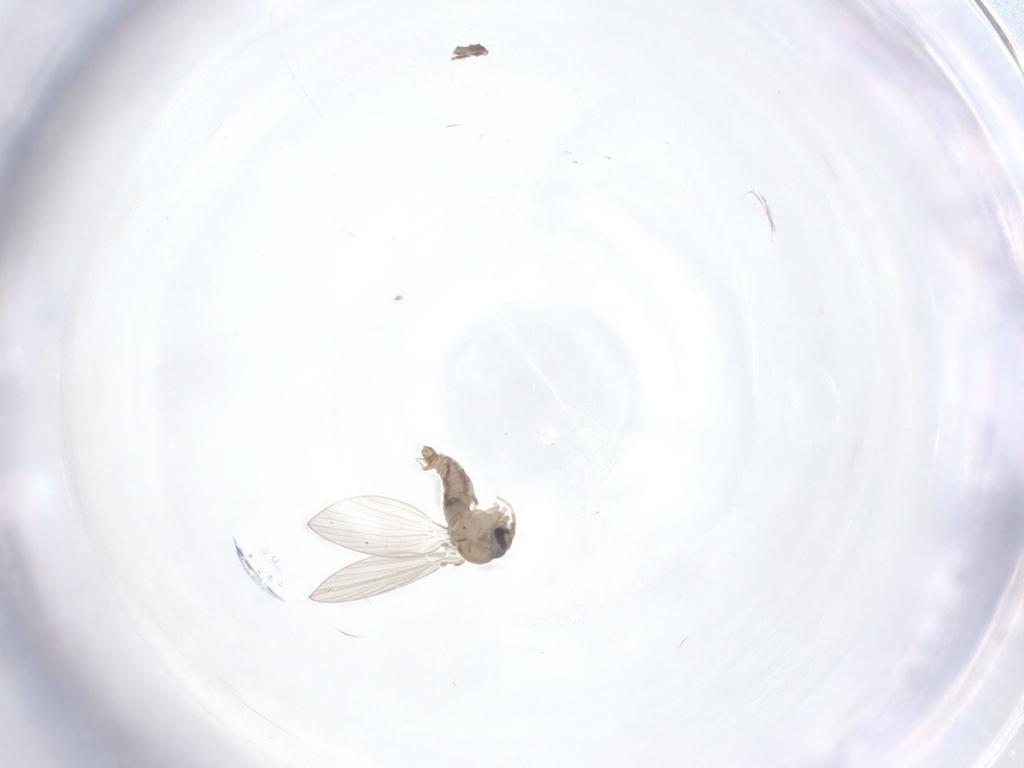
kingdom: Animalia
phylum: Arthropoda
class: Insecta
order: Diptera
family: Psychodidae
